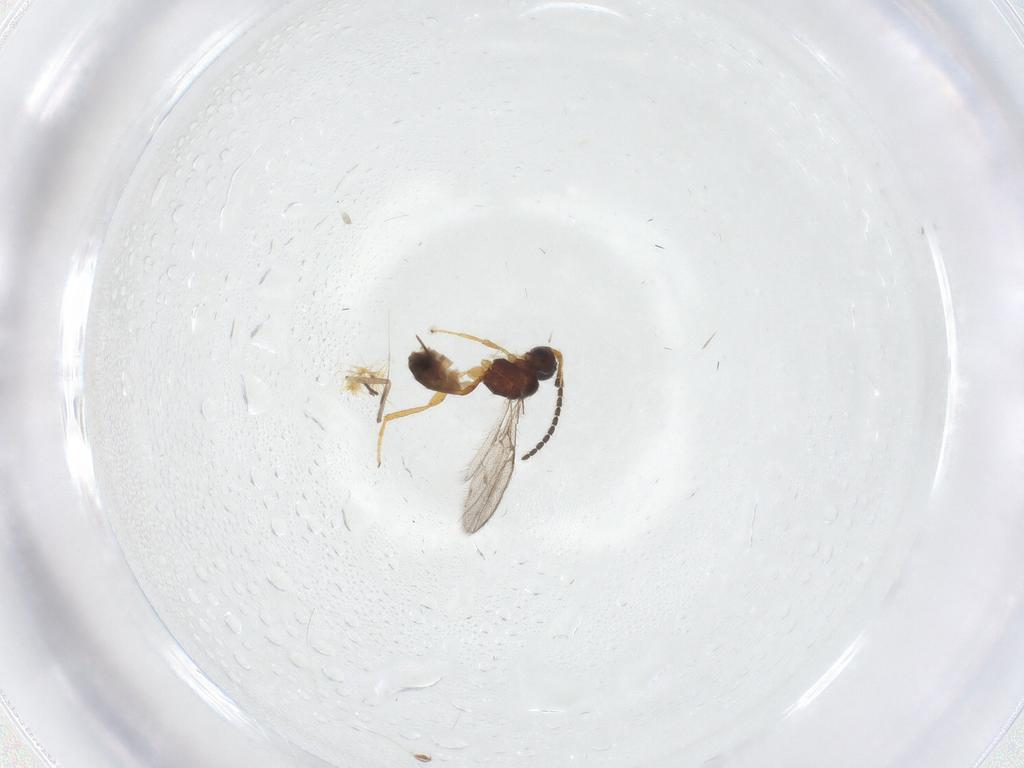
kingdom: Animalia
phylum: Arthropoda
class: Insecta
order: Hymenoptera
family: Braconidae
